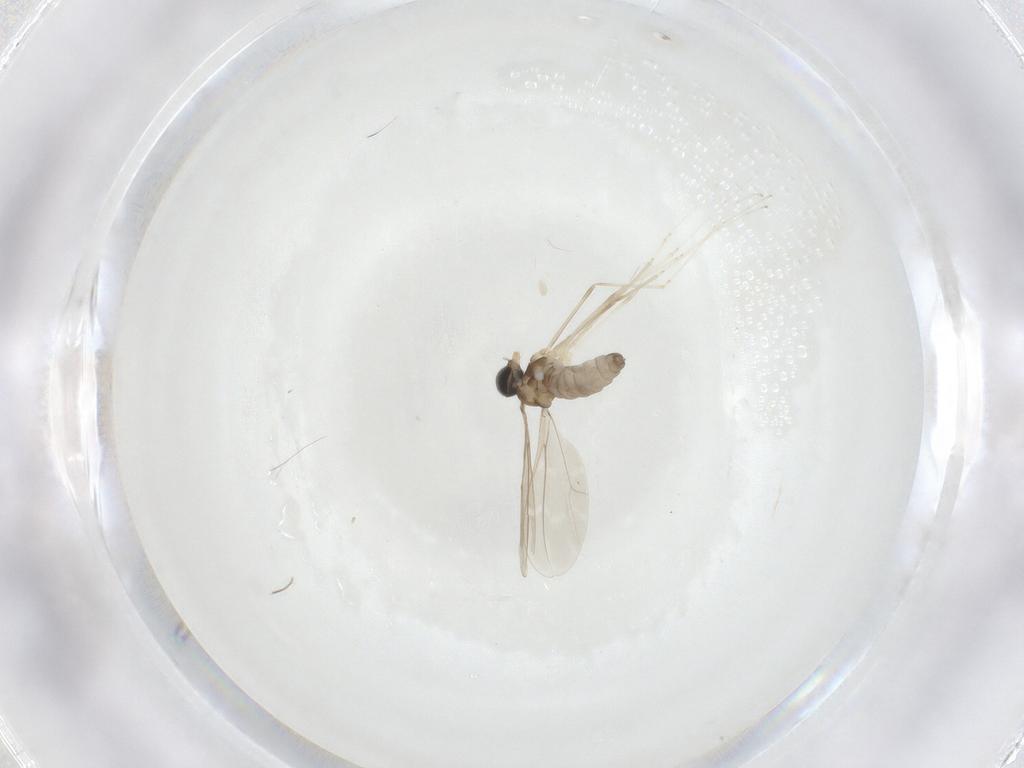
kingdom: Animalia
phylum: Arthropoda
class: Insecta
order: Diptera
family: Cecidomyiidae
